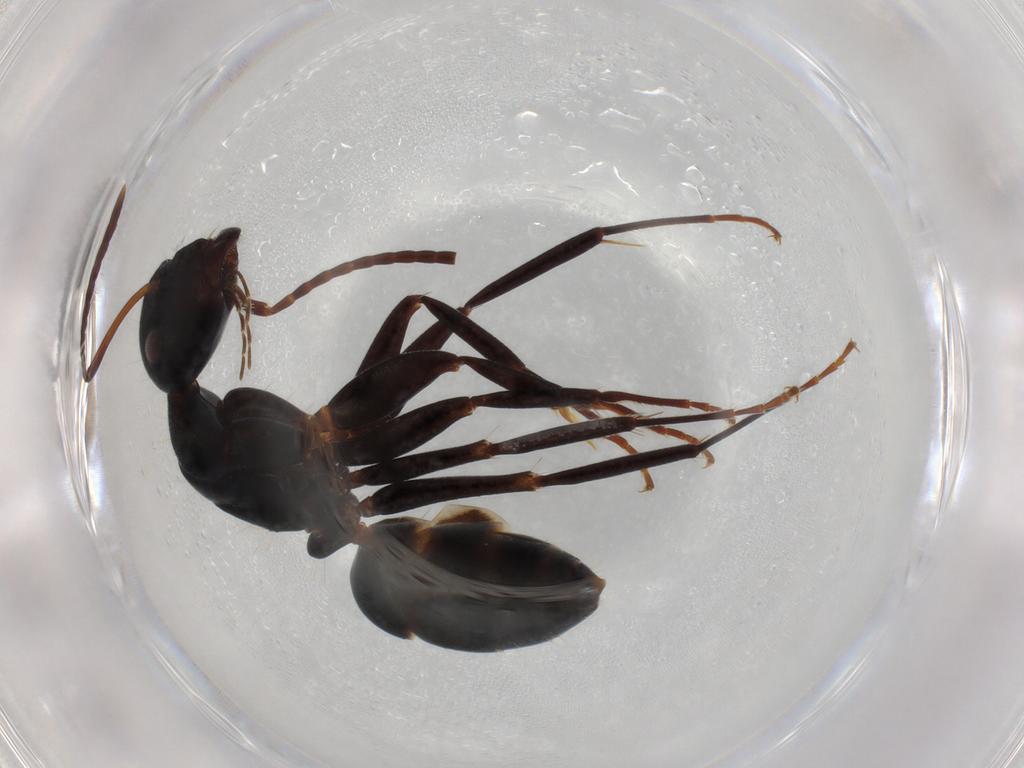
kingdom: Animalia
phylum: Arthropoda
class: Insecta
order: Hymenoptera
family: Formicidae
